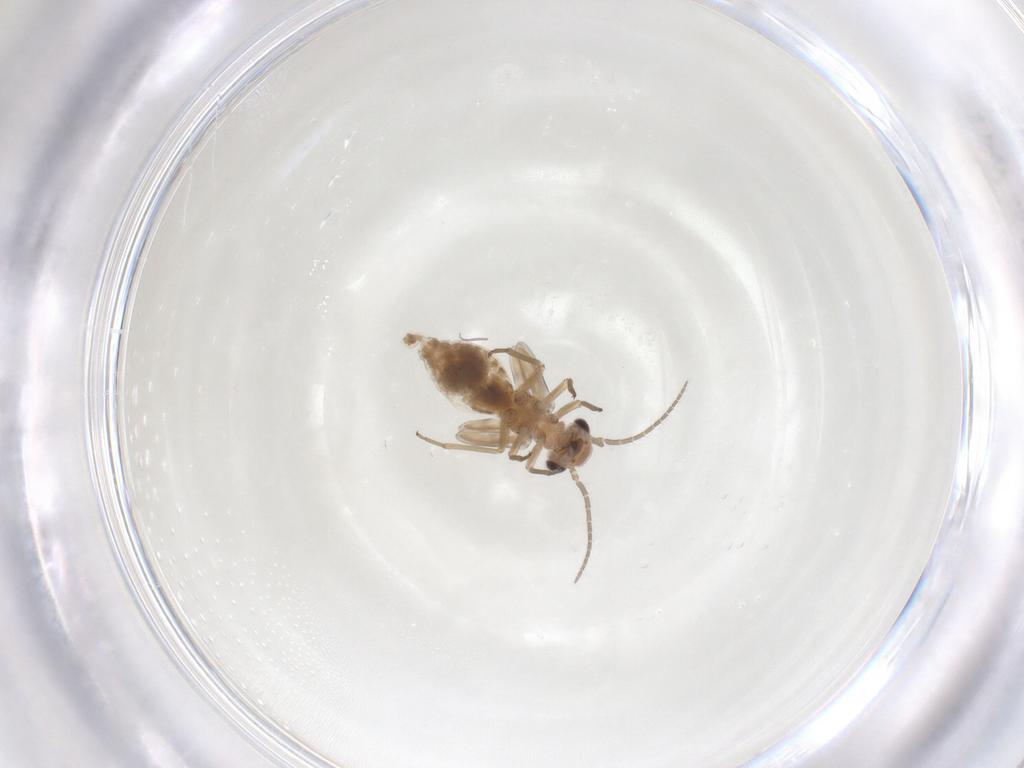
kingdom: Animalia
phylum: Arthropoda
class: Insecta
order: Psocodea
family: Peripsocidae
